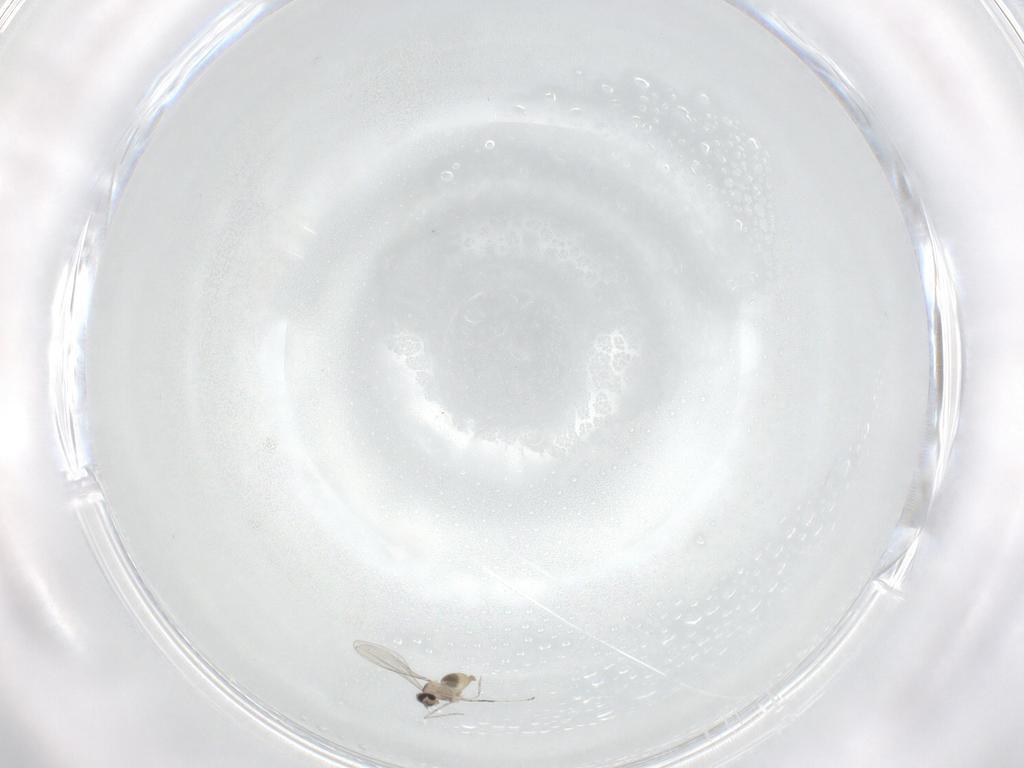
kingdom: Animalia
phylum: Arthropoda
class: Insecta
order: Diptera
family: Cecidomyiidae
